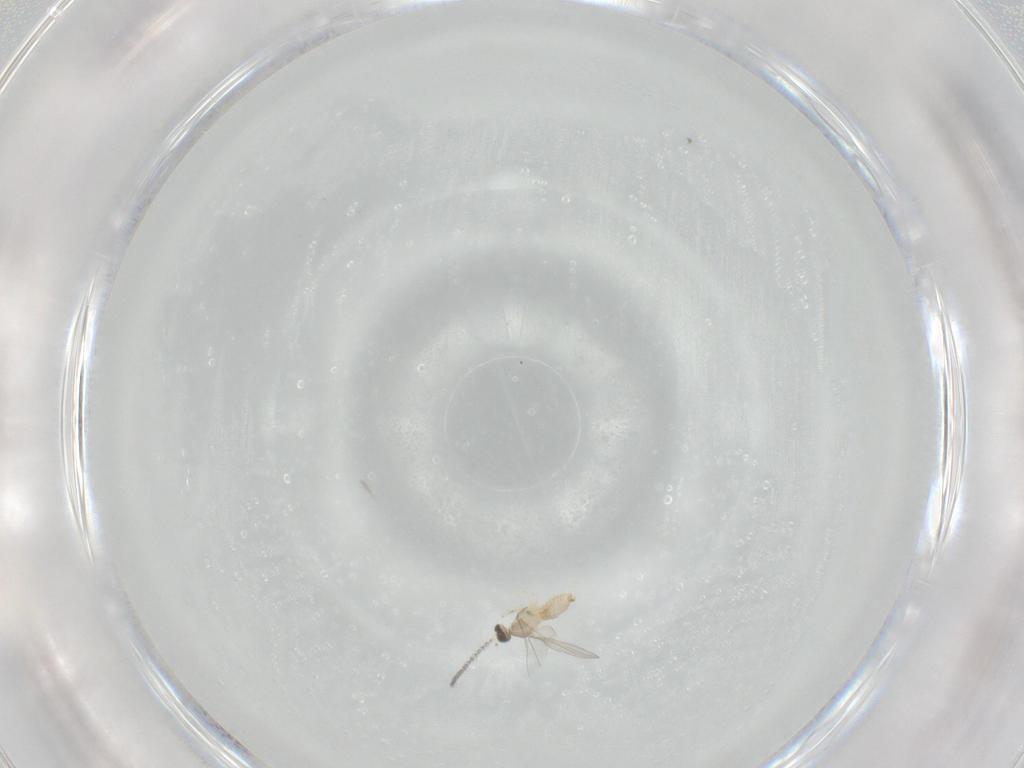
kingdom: Animalia
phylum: Arthropoda
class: Insecta
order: Diptera
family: Cecidomyiidae
